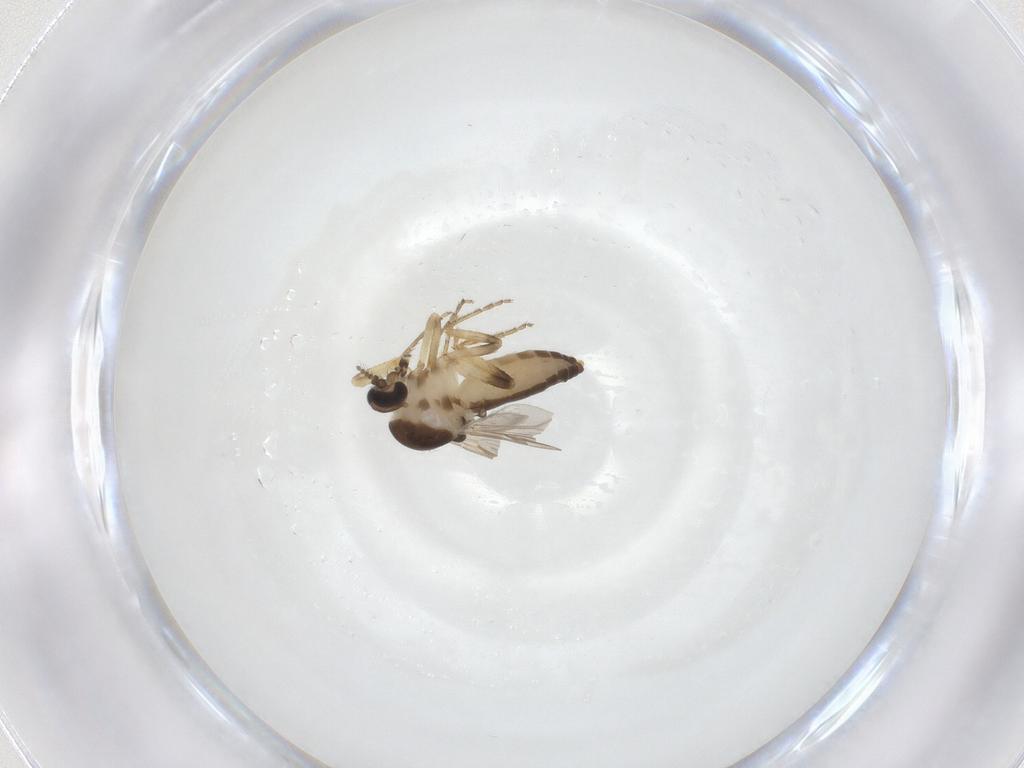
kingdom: Animalia
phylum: Arthropoda
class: Insecta
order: Diptera
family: Ceratopogonidae
